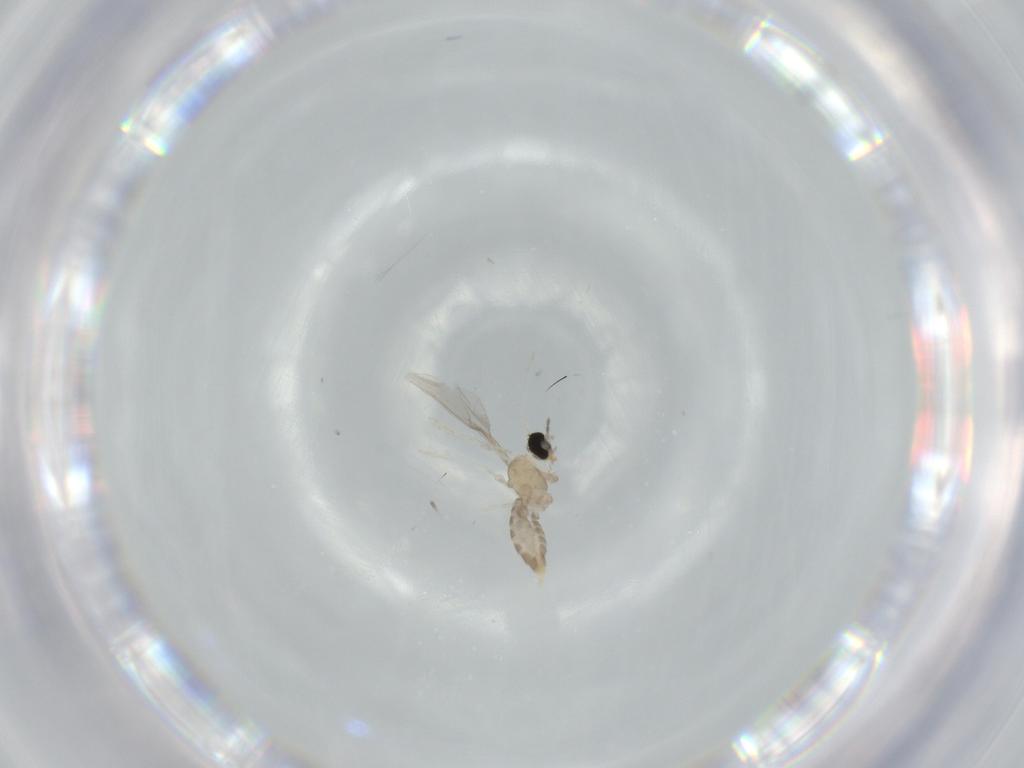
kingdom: Animalia
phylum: Arthropoda
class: Insecta
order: Diptera
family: Cecidomyiidae
